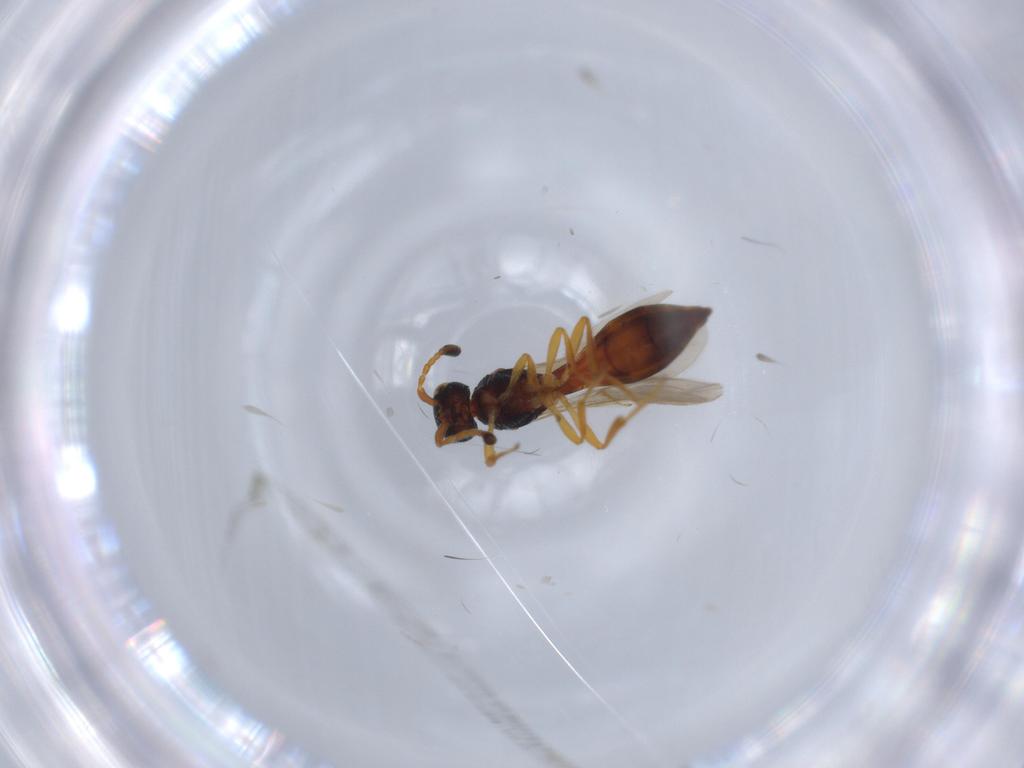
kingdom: Animalia
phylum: Arthropoda
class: Insecta
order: Hymenoptera
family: Scelionidae
